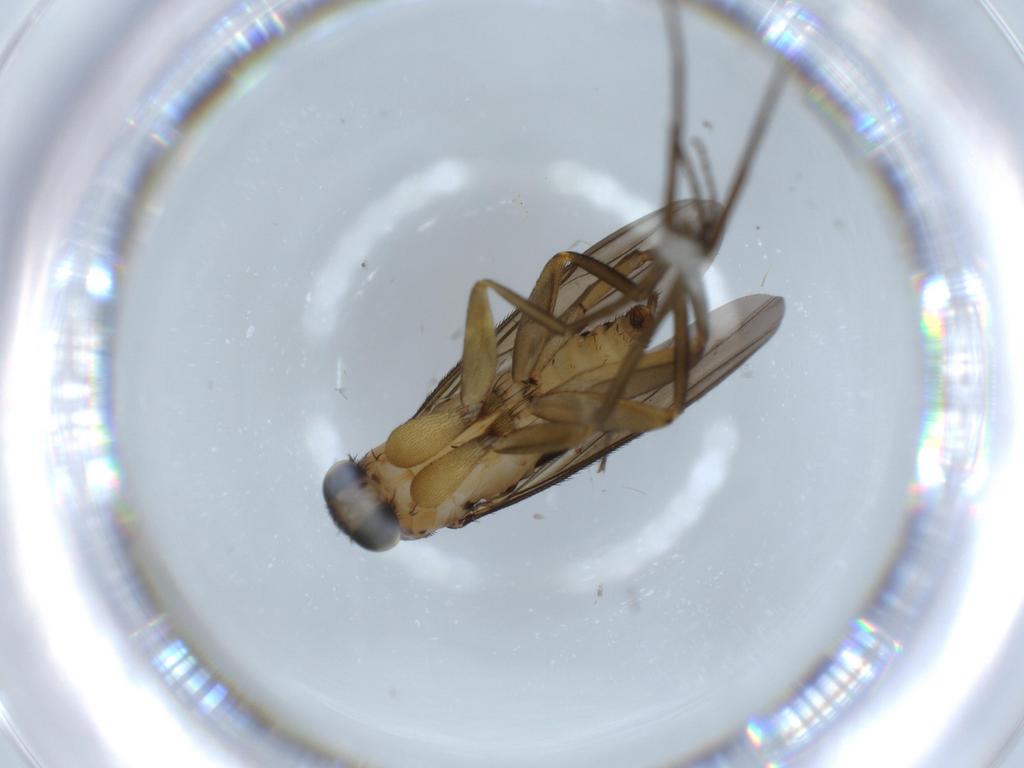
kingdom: Animalia
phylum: Arthropoda
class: Insecta
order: Diptera
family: Phoridae
